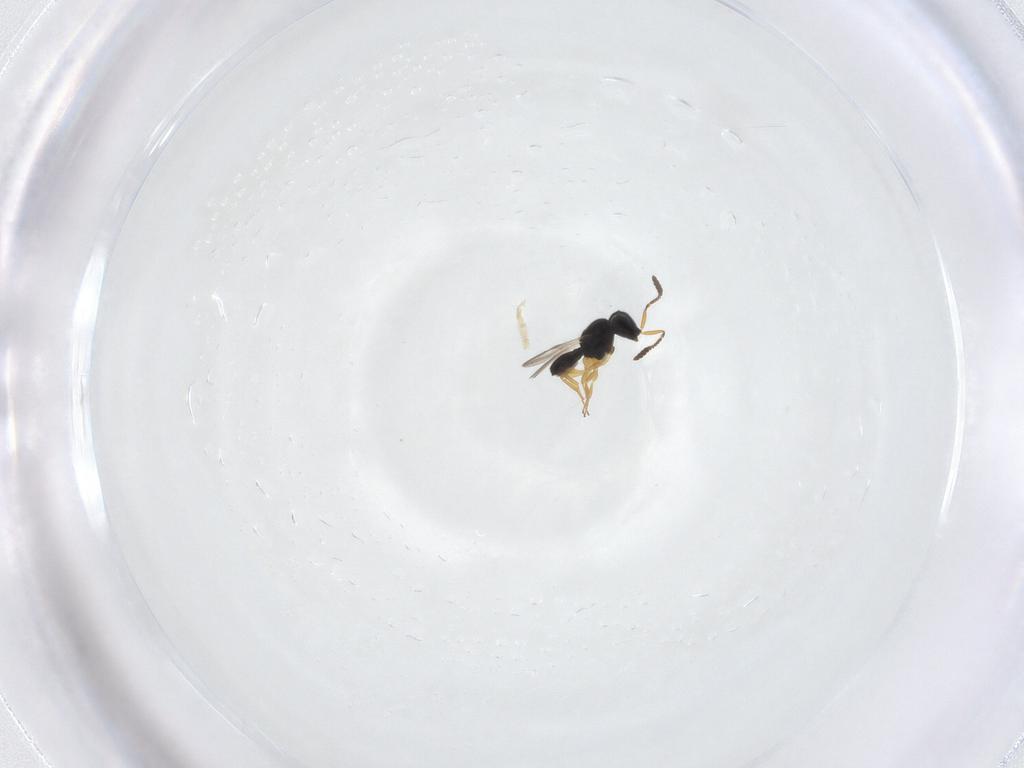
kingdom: Animalia
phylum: Arthropoda
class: Insecta
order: Hymenoptera
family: Scelionidae
